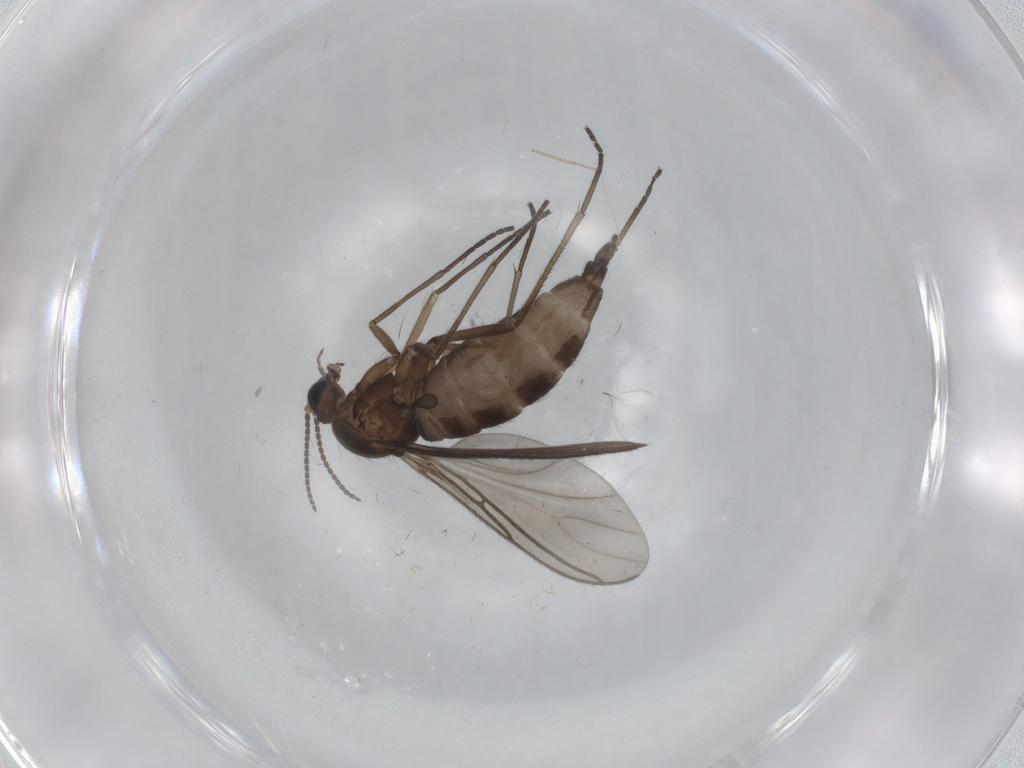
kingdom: Animalia
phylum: Arthropoda
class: Insecta
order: Diptera
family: Sciaridae
